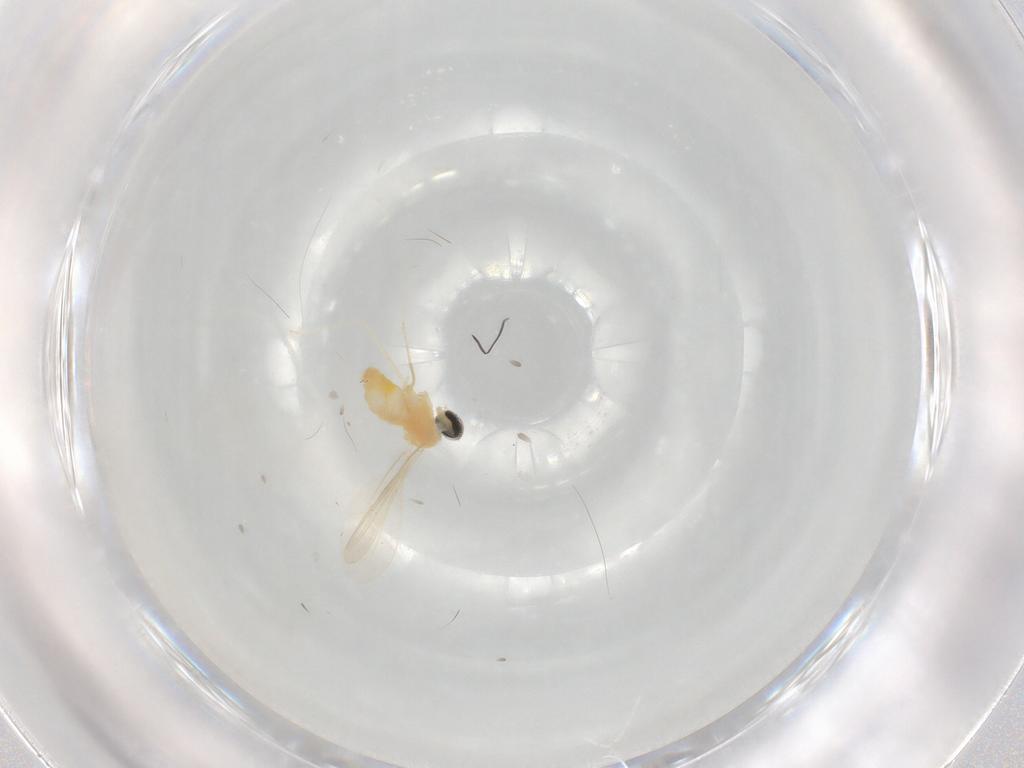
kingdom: Animalia
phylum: Arthropoda
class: Insecta
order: Diptera
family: Cecidomyiidae
